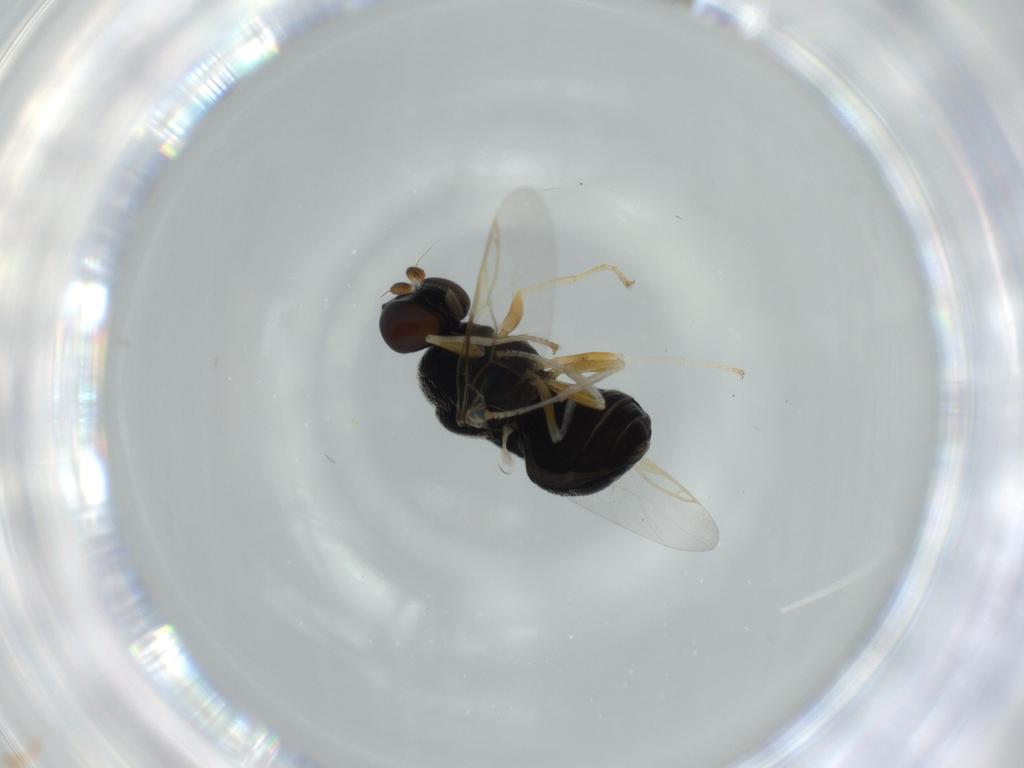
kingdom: Animalia
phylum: Arthropoda
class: Insecta
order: Diptera
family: Stratiomyidae
